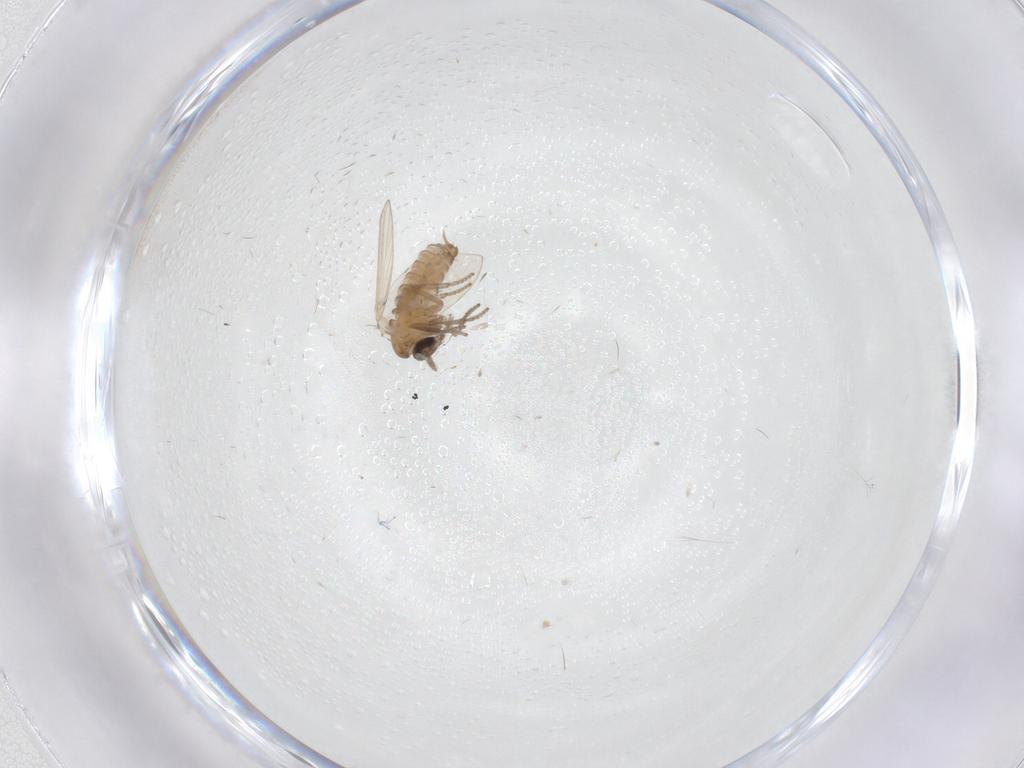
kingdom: Animalia
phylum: Arthropoda
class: Insecta
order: Diptera
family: Psychodidae
